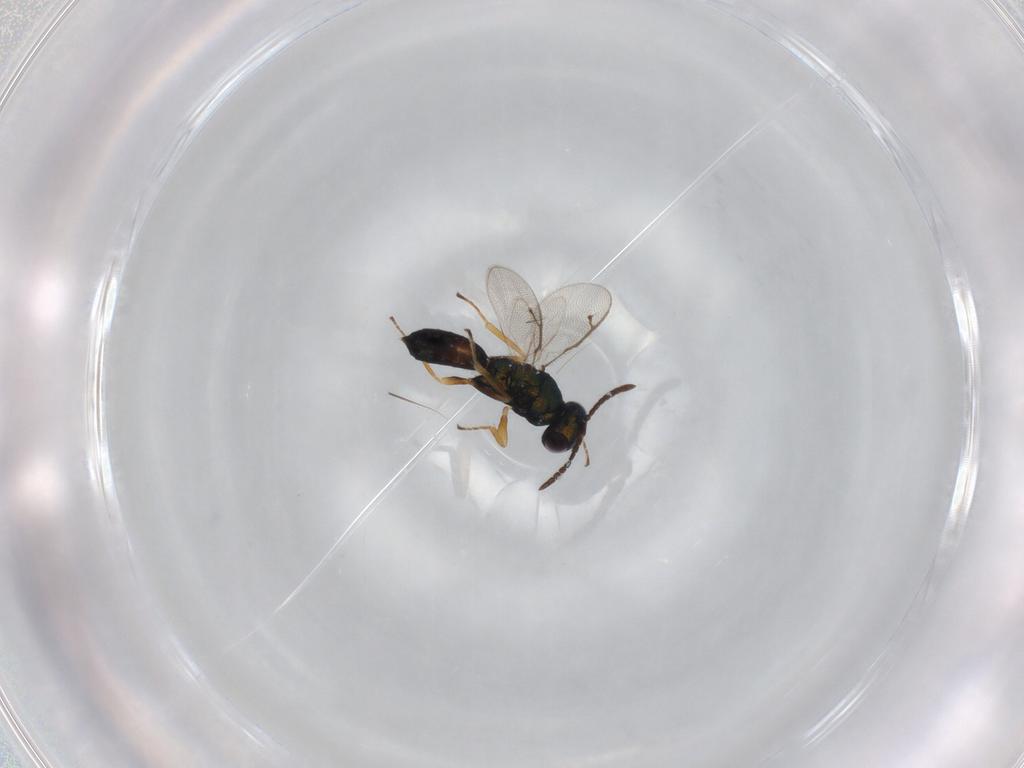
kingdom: Animalia
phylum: Arthropoda
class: Insecta
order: Hymenoptera
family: Pteromalidae
